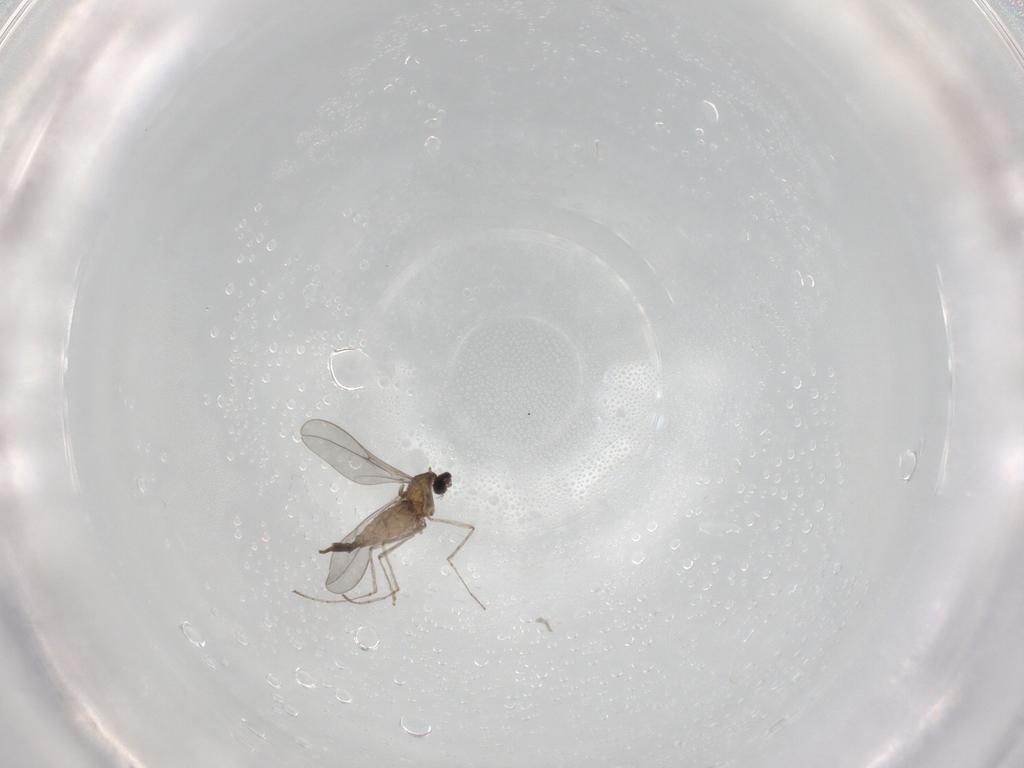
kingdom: Animalia
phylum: Arthropoda
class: Insecta
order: Diptera
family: Cecidomyiidae
